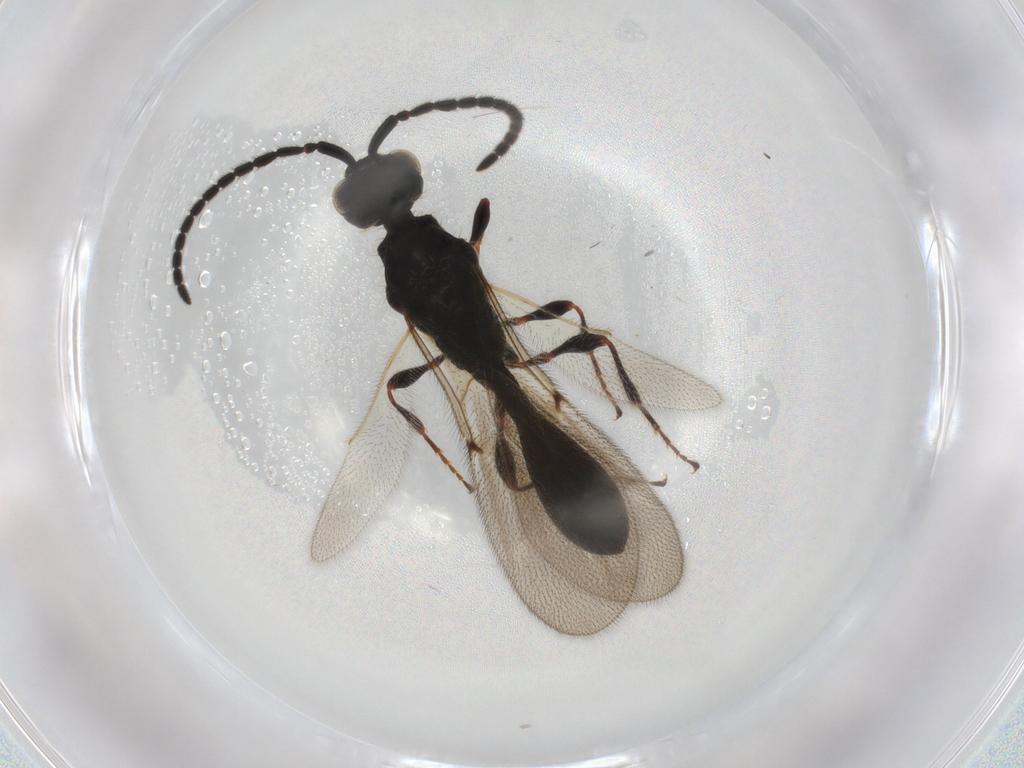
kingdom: Animalia
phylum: Arthropoda
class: Insecta
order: Hymenoptera
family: Diapriidae
